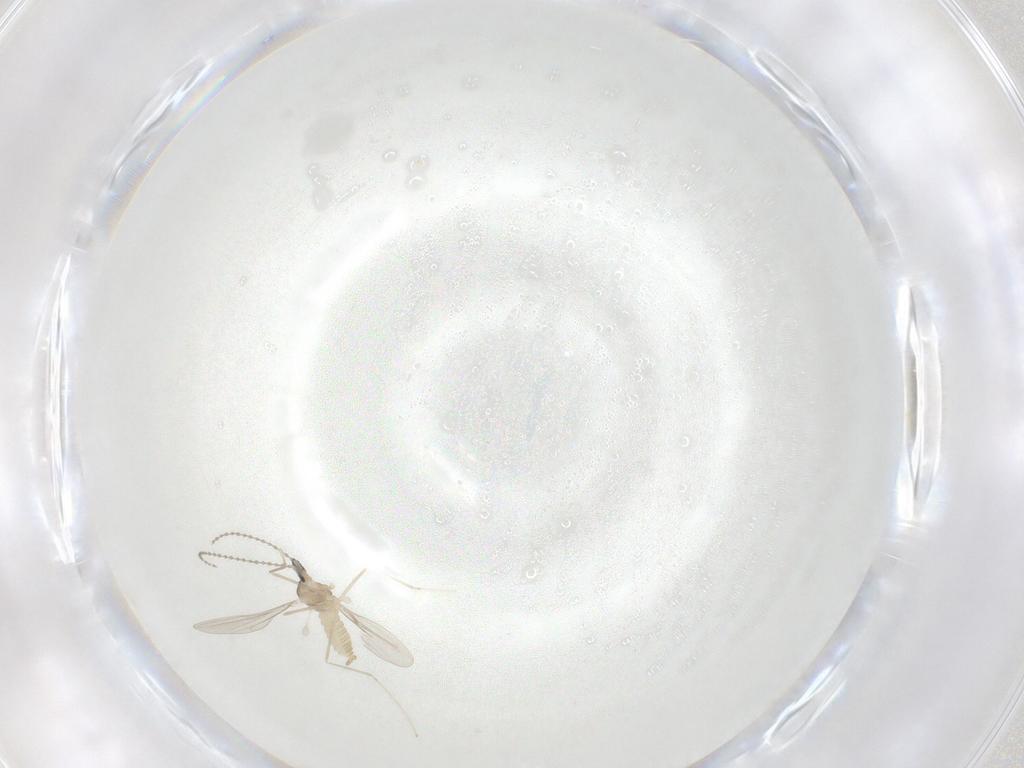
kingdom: Animalia
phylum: Arthropoda
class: Insecta
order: Diptera
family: Cecidomyiidae
